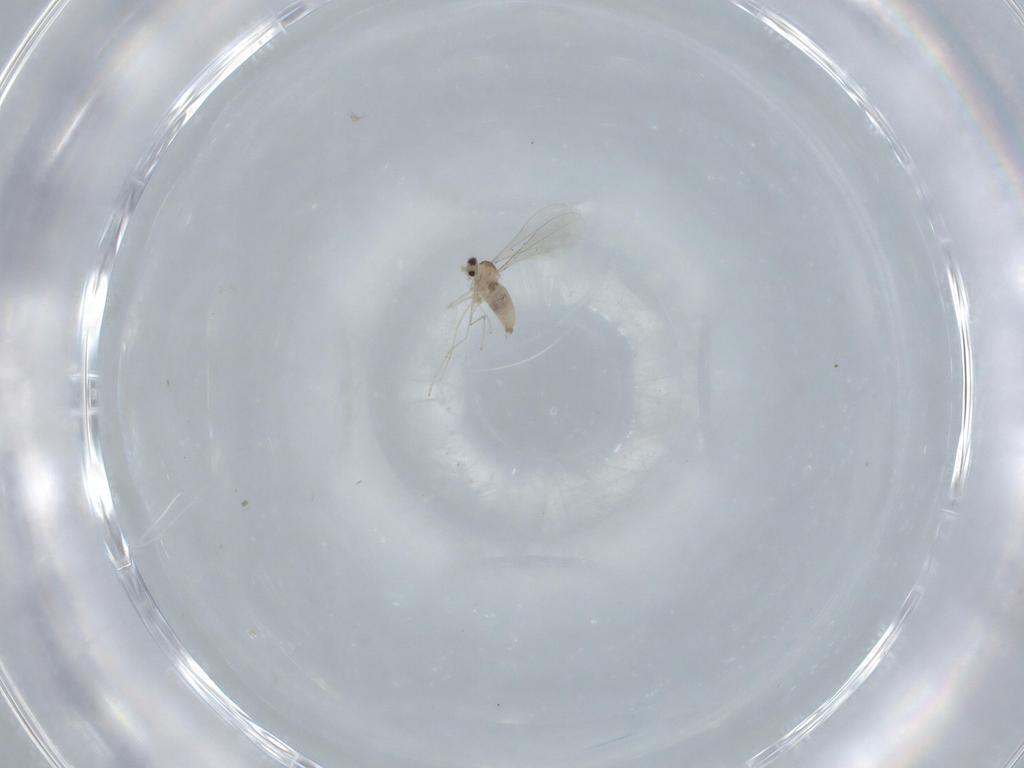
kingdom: Animalia
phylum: Arthropoda
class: Insecta
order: Diptera
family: Cecidomyiidae
